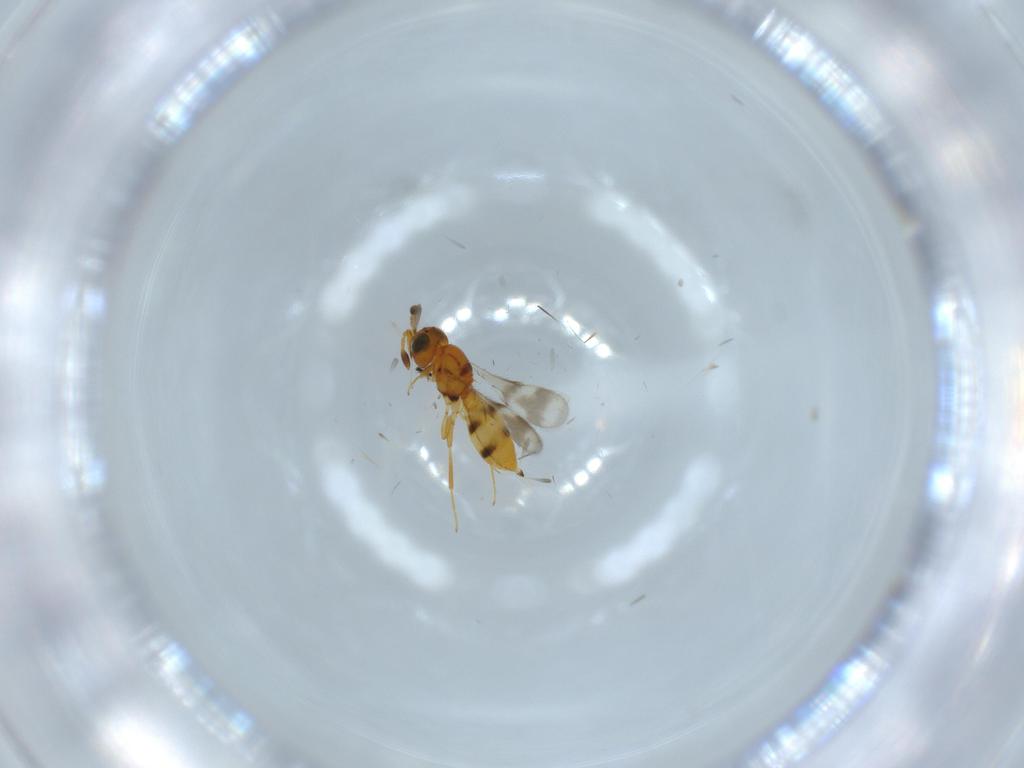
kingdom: Animalia
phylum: Arthropoda
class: Insecta
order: Hymenoptera
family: Scelionidae
